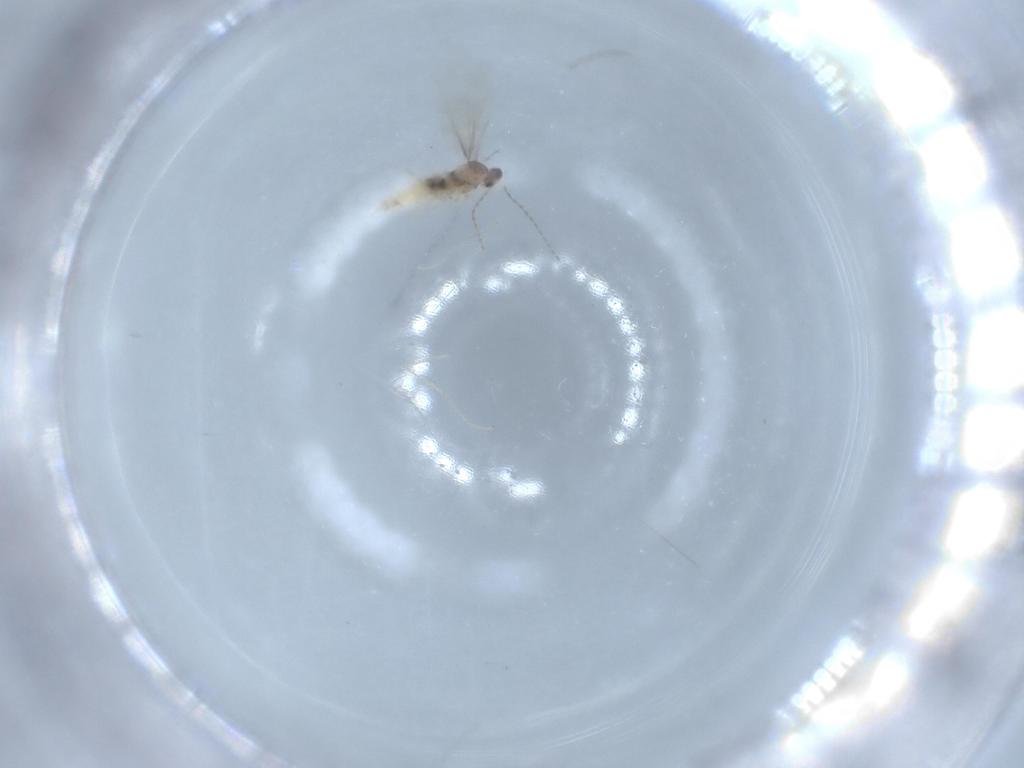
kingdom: Animalia
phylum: Arthropoda
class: Insecta
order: Diptera
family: Cecidomyiidae
